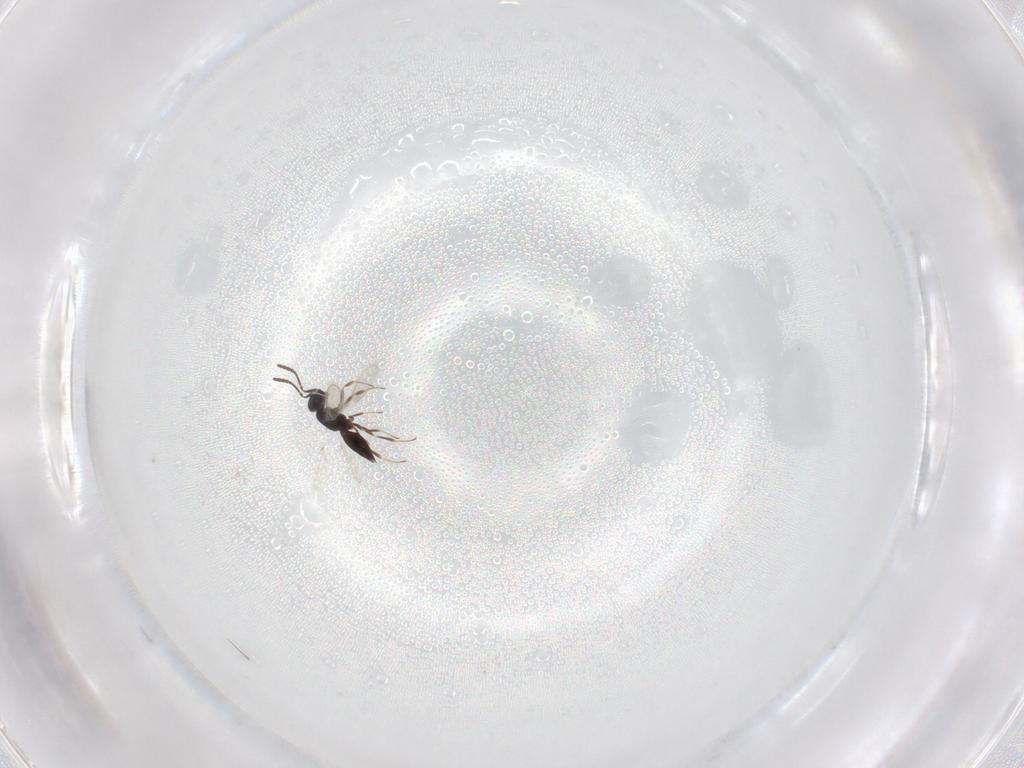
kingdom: Animalia
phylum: Arthropoda
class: Insecta
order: Hymenoptera
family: Scelionidae
